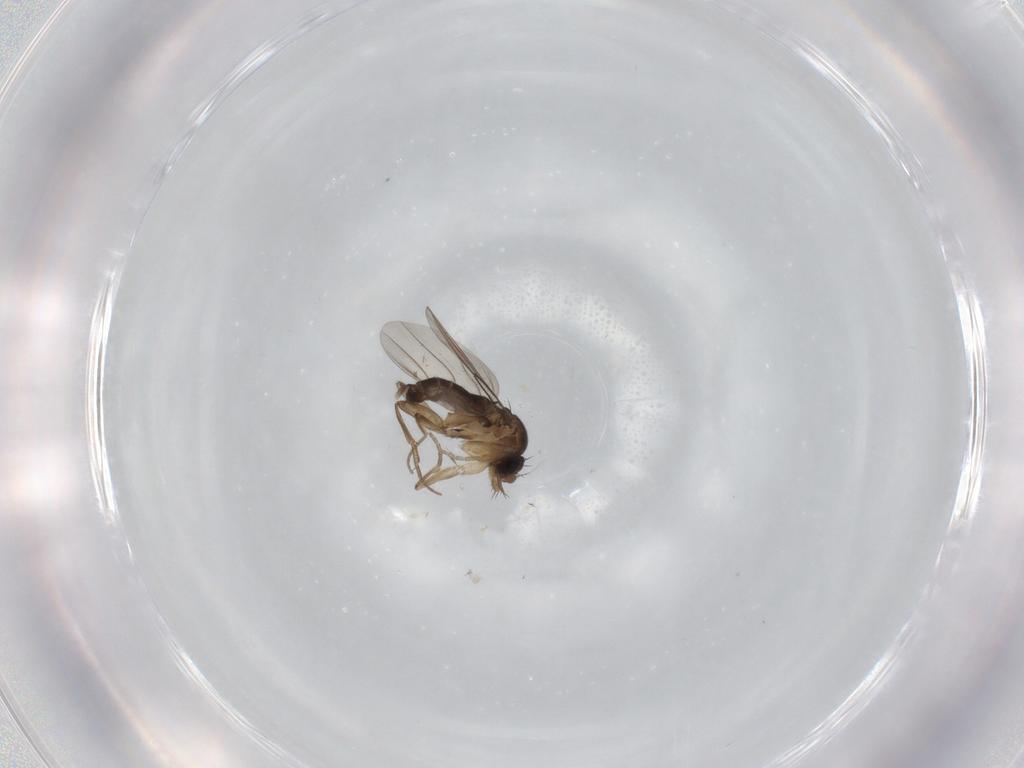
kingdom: Animalia
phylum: Arthropoda
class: Insecta
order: Diptera
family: Phoridae
